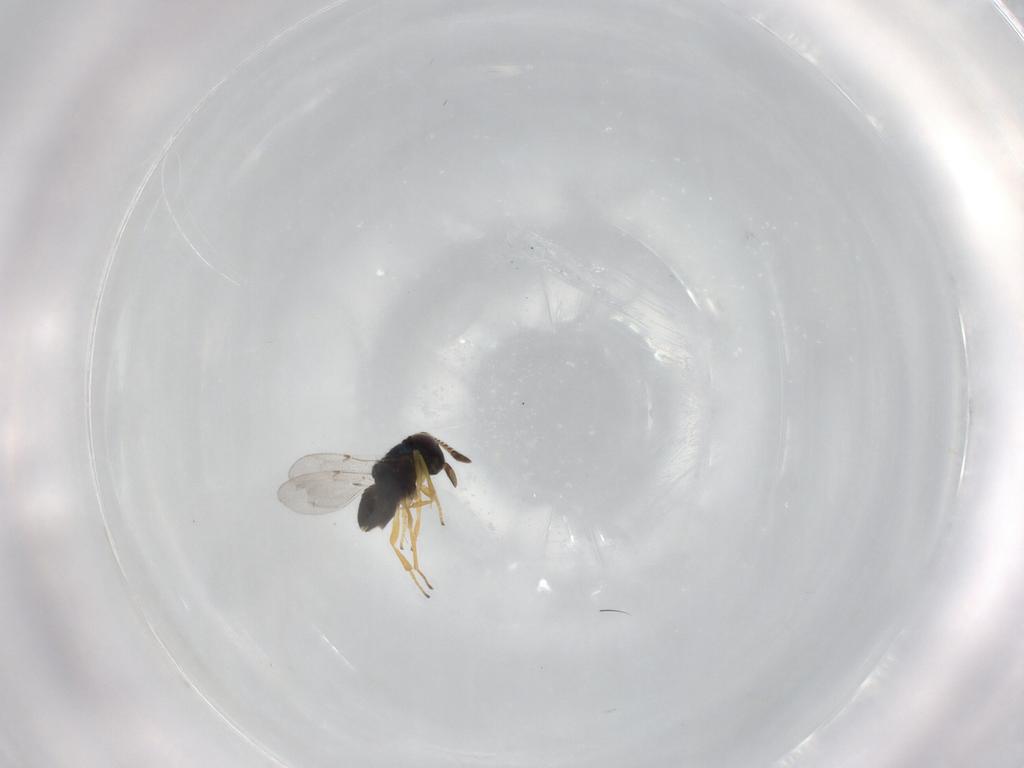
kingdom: Animalia
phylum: Arthropoda
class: Insecta
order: Hymenoptera
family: Encyrtidae
